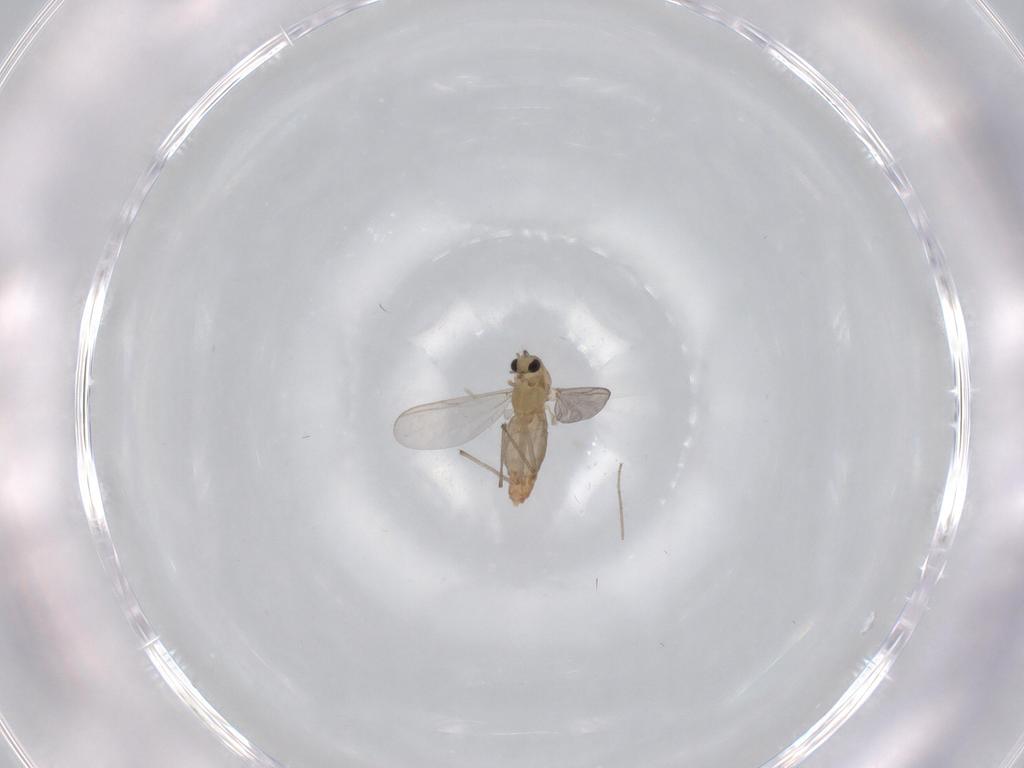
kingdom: Animalia
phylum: Arthropoda
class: Insecta
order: Diptera
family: Chironomidae
